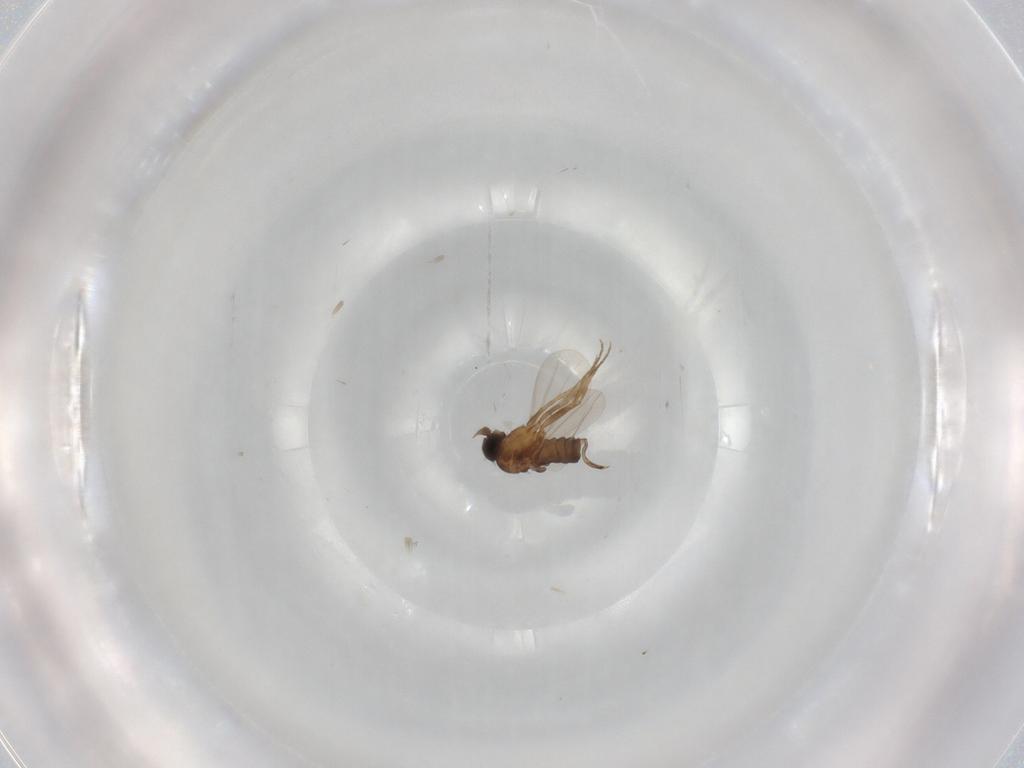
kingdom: Animalia
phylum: Arthropoda
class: Insecta
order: Diptera
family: Phoridae
